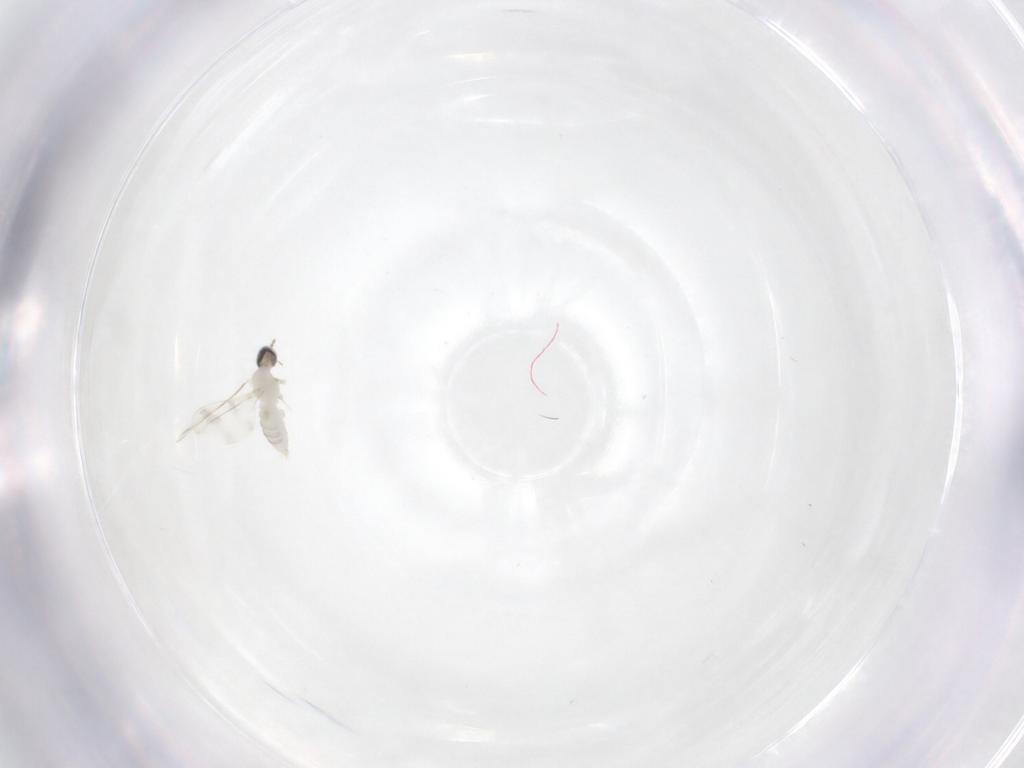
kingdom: Animalia
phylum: Arthropoda
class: Insecta
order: Diptera
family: Cecidomyiidae
